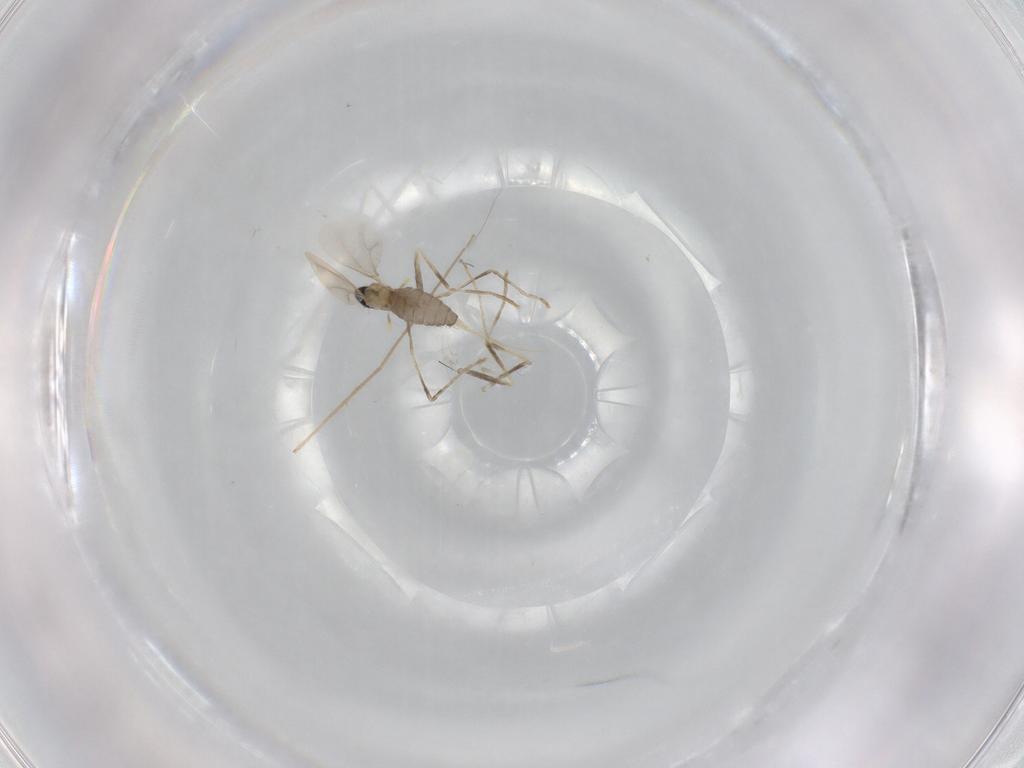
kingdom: Animalia
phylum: Arthropoda
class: Insecta
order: Diptera
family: Cecidomyiidae
